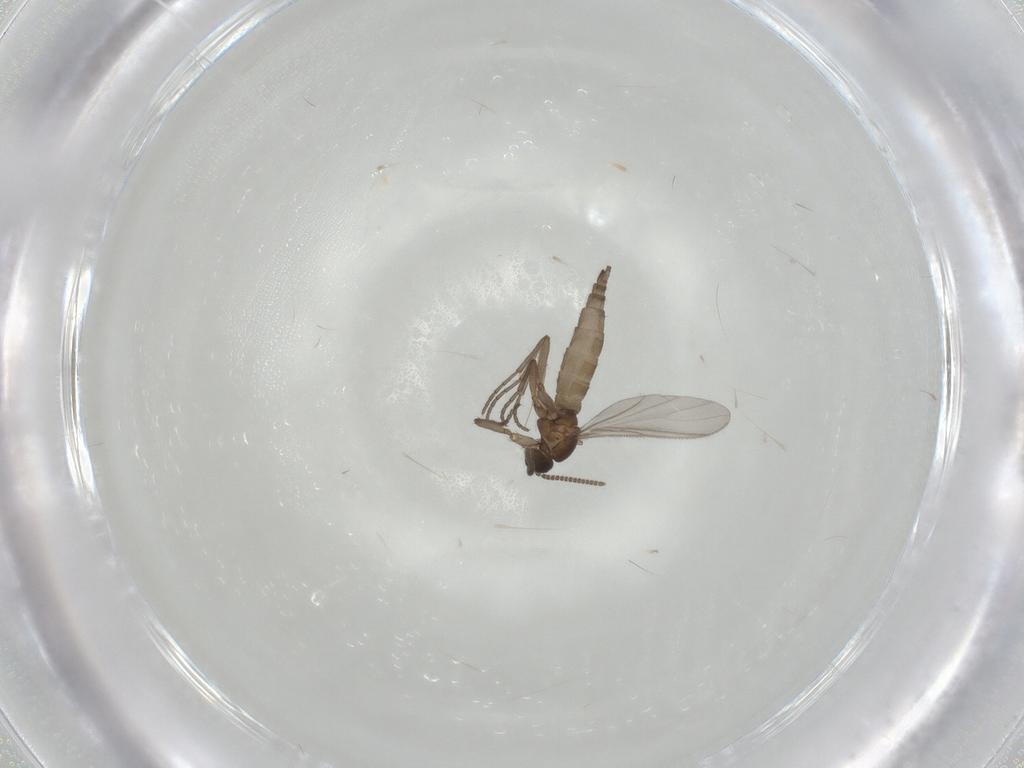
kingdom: Animalia
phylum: Arthropoda
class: Insecta
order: Diptera
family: Sciaridae
